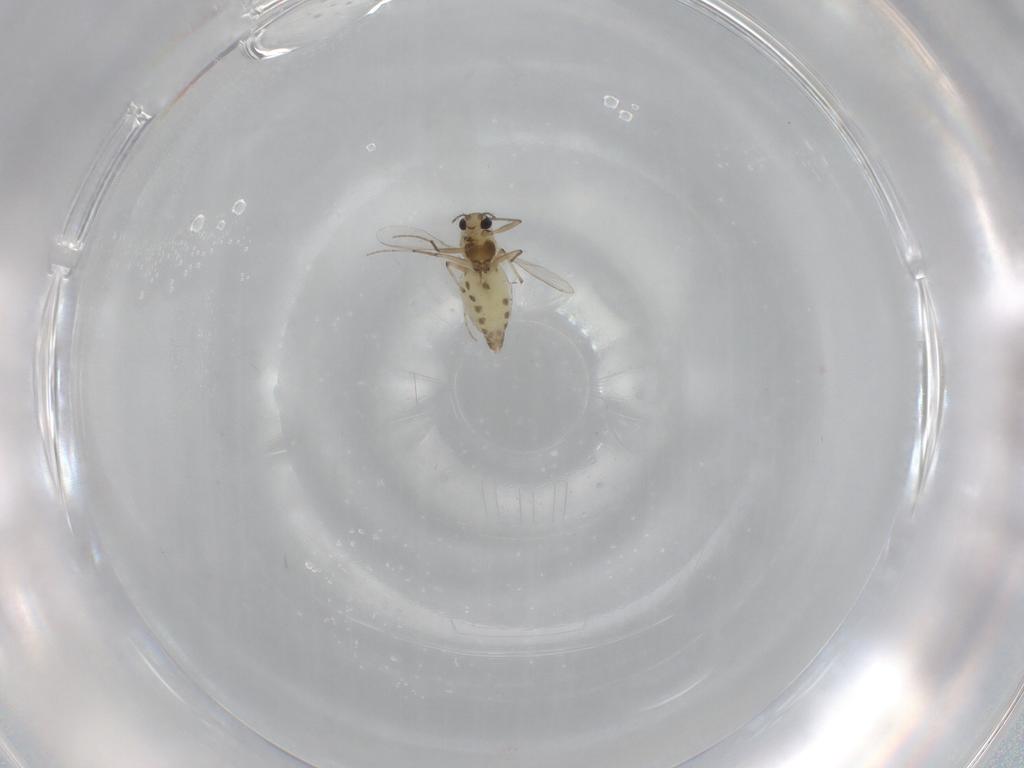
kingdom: Animalia
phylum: Arthropoda
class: Insecta
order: Diptera
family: Chironomidae
